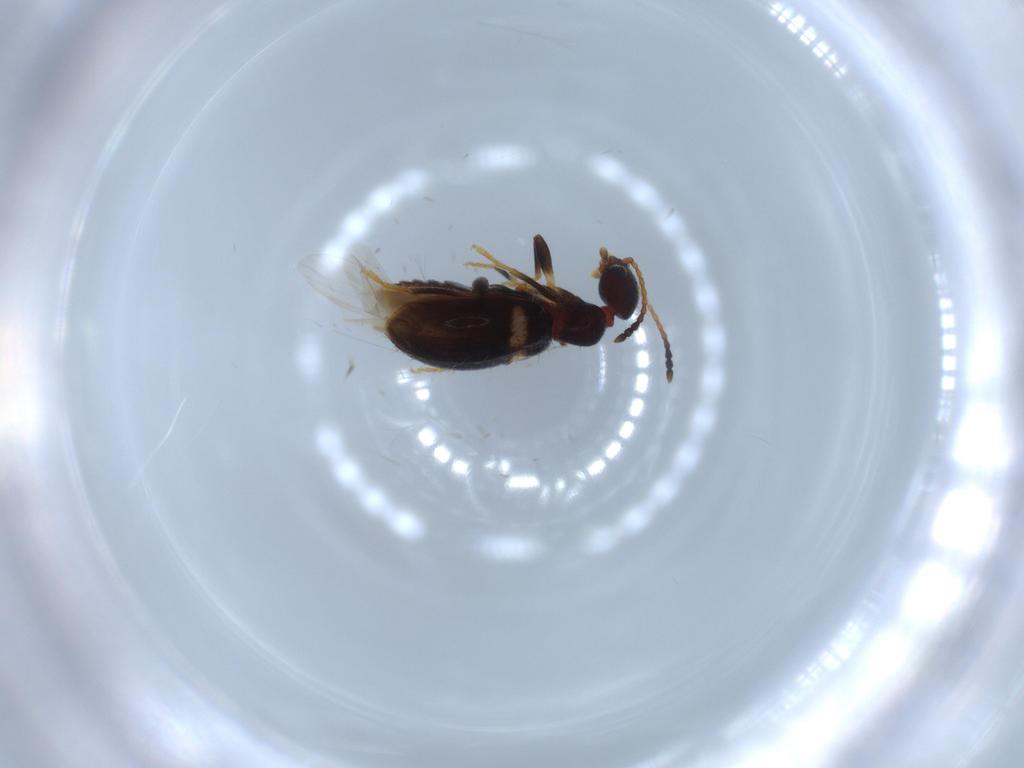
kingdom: Animalia
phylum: Arthropoda
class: Insecta
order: Coleoptera
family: Anthicidae
